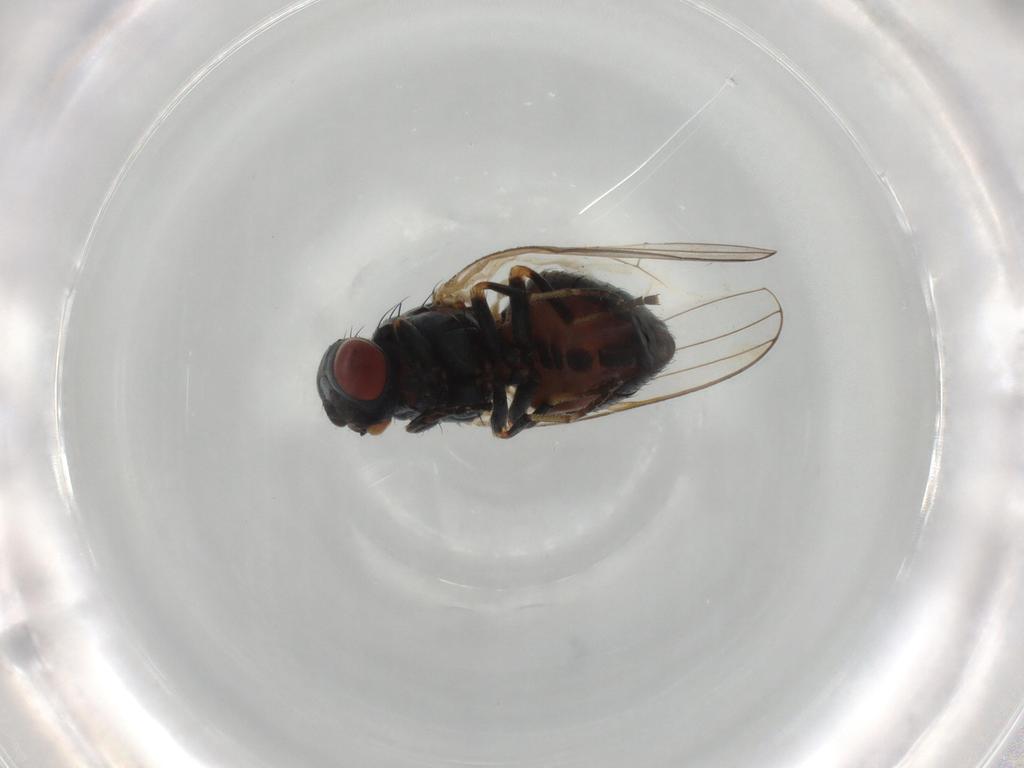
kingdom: Animalia
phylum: Arthropoda
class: Insecta
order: Diptera
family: Chamaemyiidae
